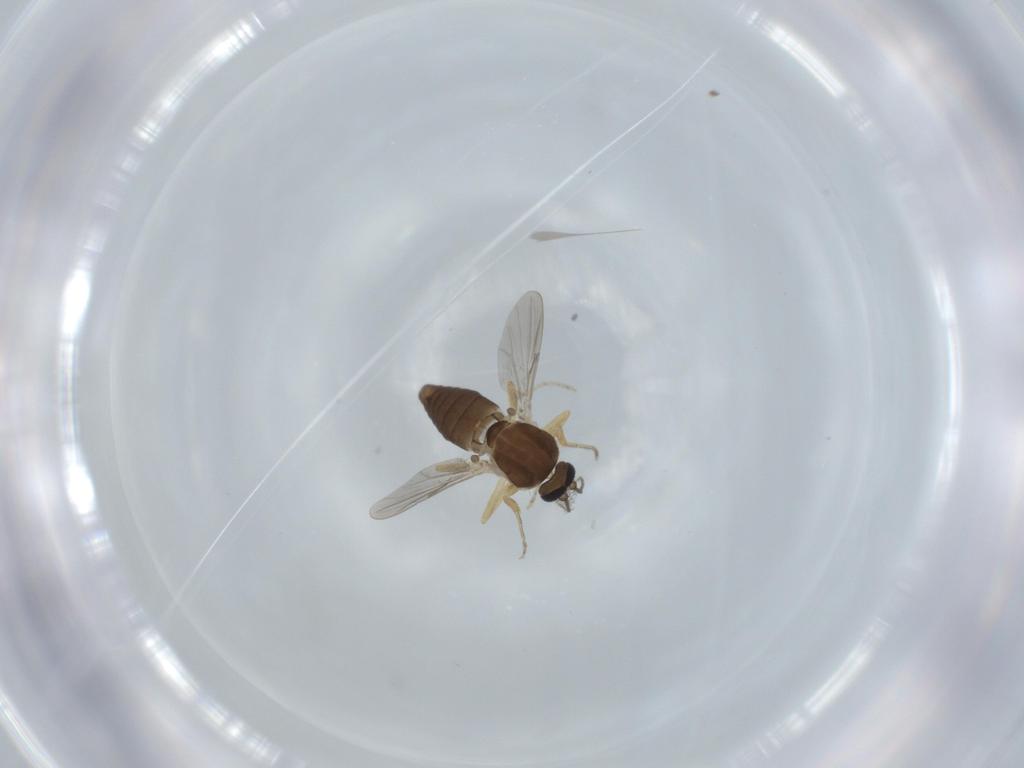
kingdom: Animalia
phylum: Arthropoda
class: Insecta
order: Diptera
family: Ceratopogonidae
